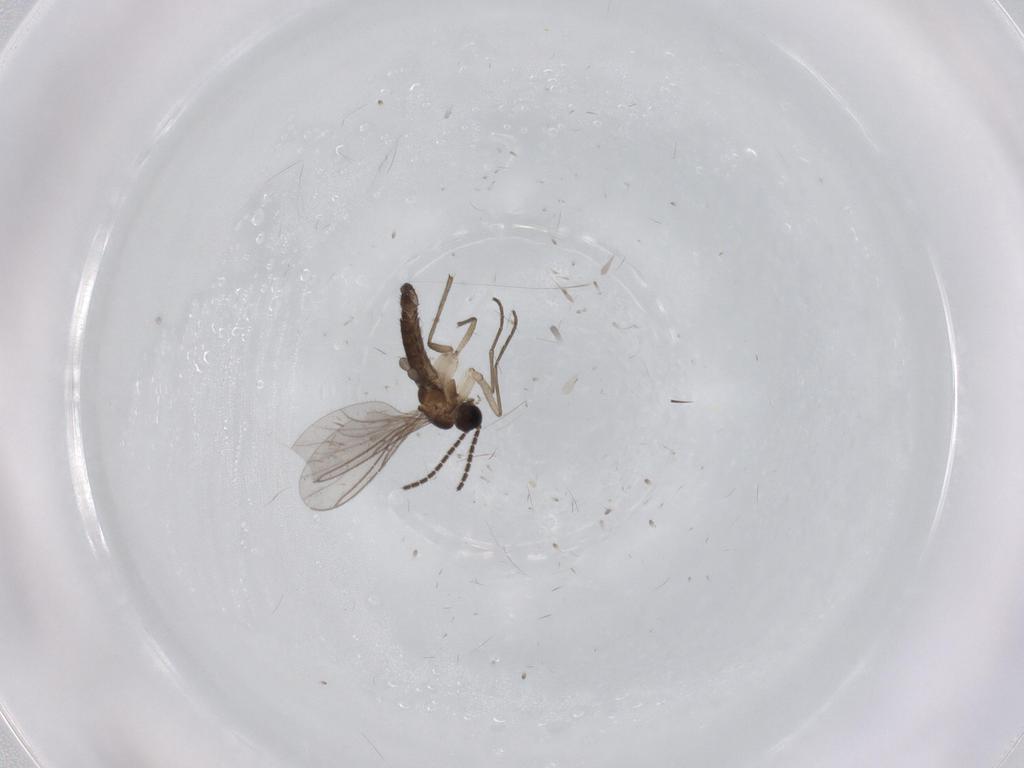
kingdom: Animalia
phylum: Arthropoda
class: Insecta
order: Diptera
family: Sciaridae
